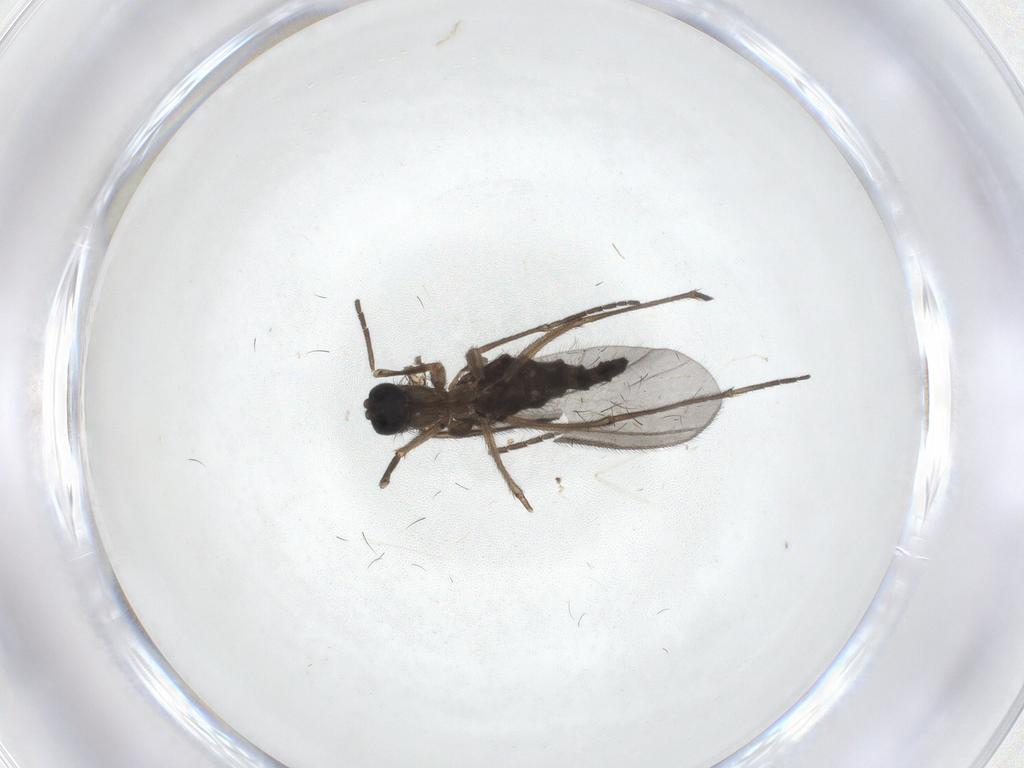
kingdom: Animalia
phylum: Arthropoda
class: Insecta
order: Diptera
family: Sciaridae
